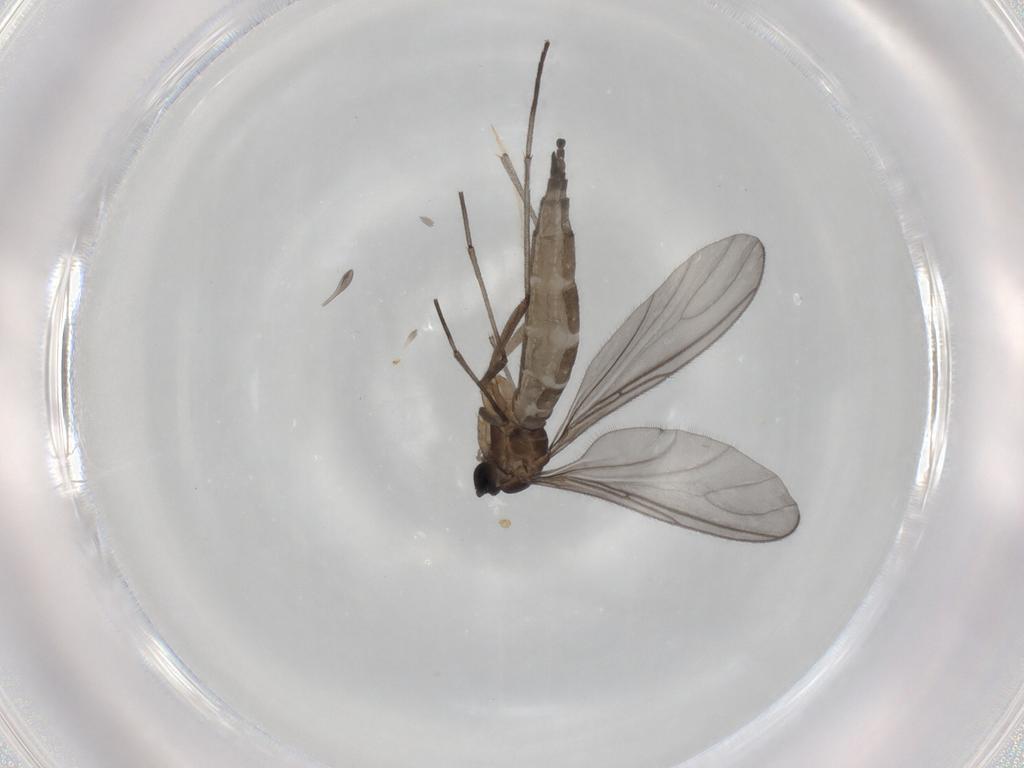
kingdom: Animalia
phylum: Arthropoda
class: Insecta
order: Diptera
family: Sciaridae
